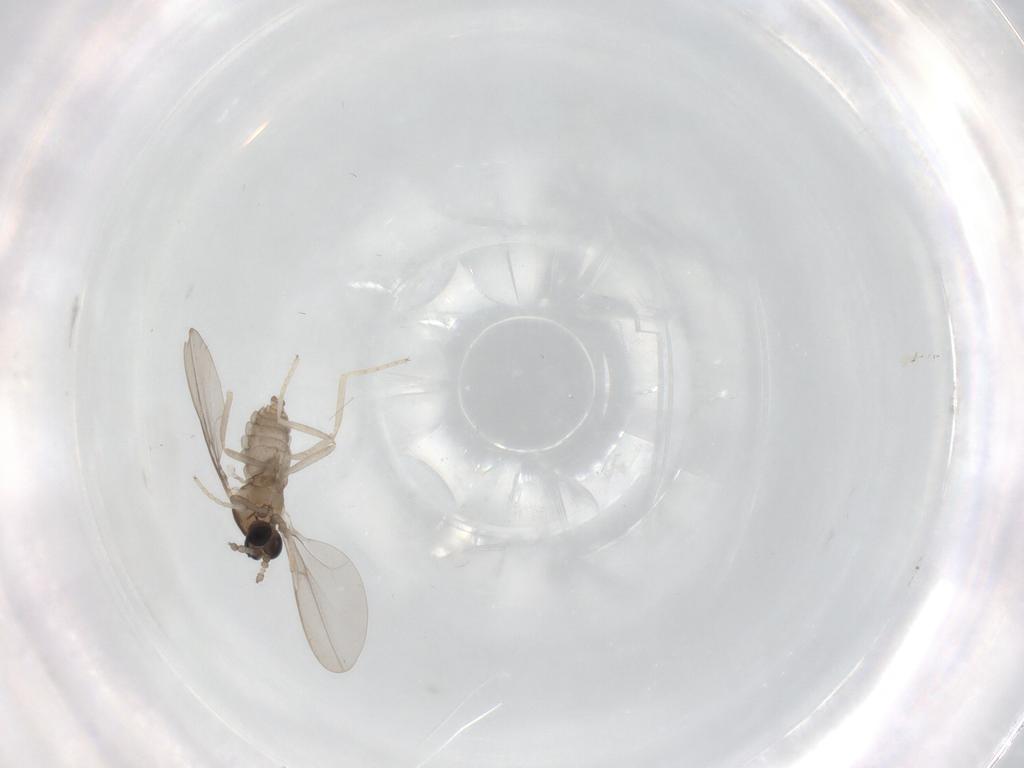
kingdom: Animalia
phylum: Arthropoda
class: Insecta
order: Diptera
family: Cecidomyiidae
